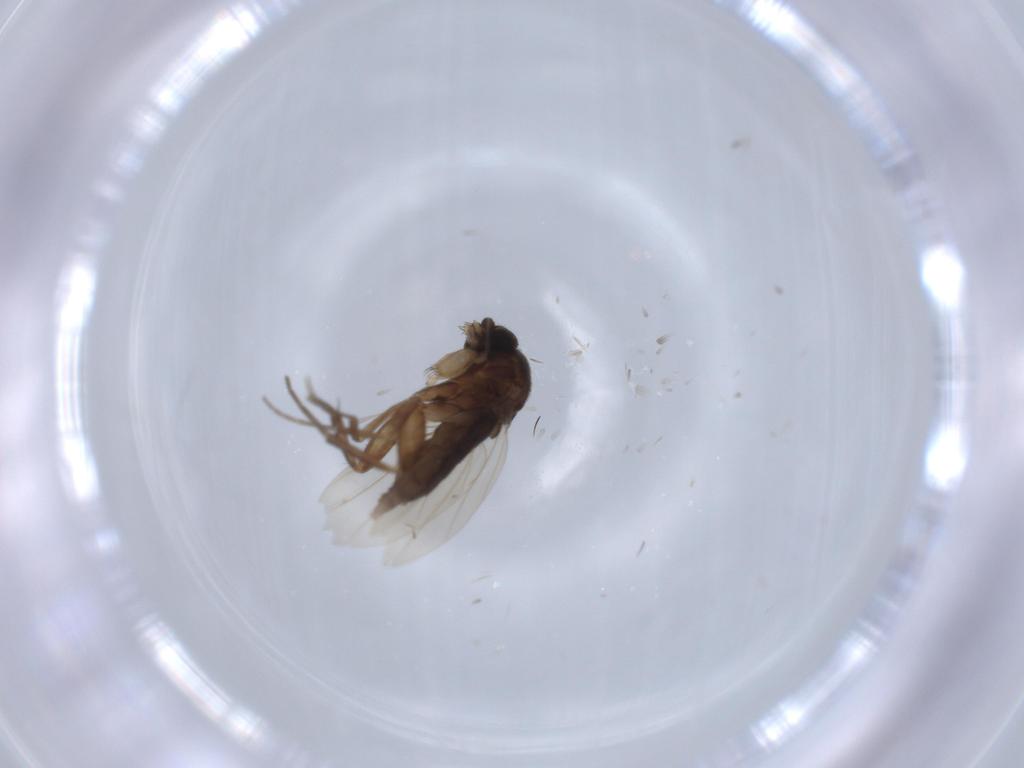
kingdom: Animalia
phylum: Arthropoda
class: Insecta
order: Diptera
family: Phoridae
